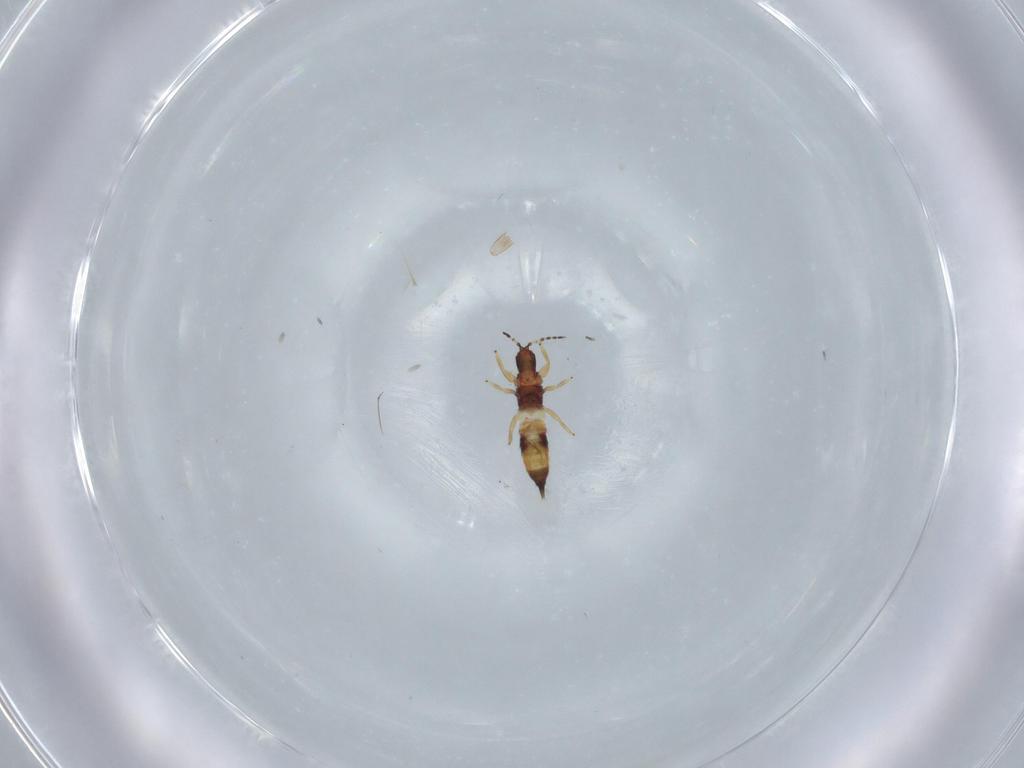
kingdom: Animalia
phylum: Arthropoda
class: Insecta
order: Thysanoptera
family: Phlaeothripidae
